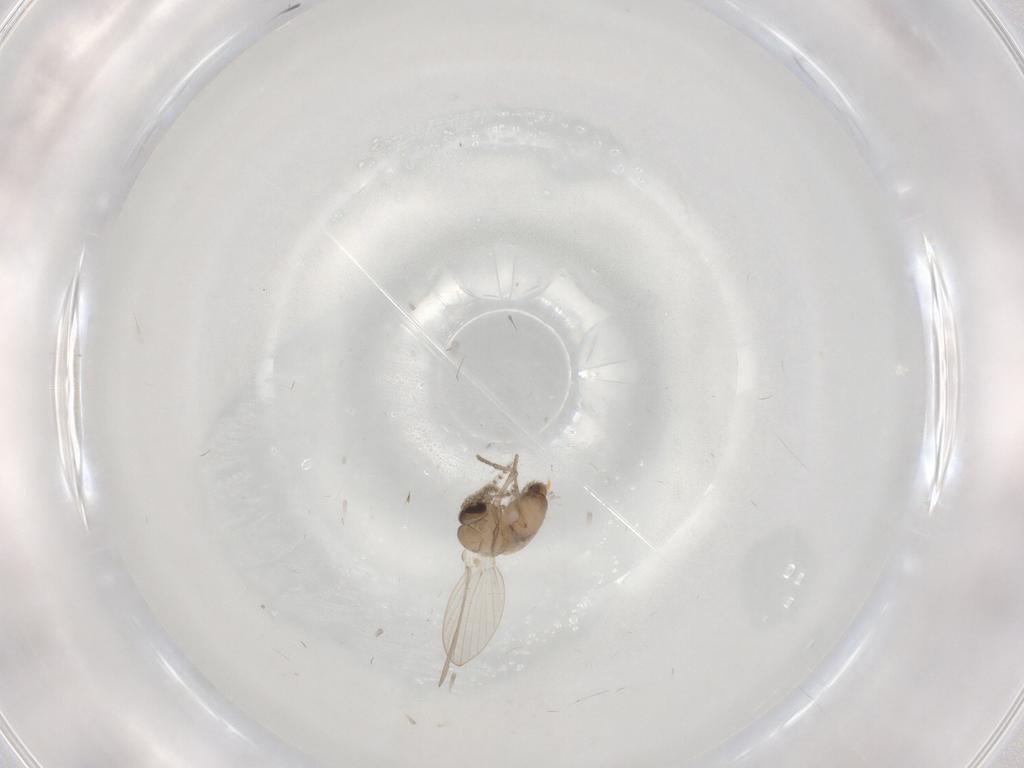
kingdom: Animalia
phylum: Arthropoda
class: Insecta
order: Diptera
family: Psychodidae
